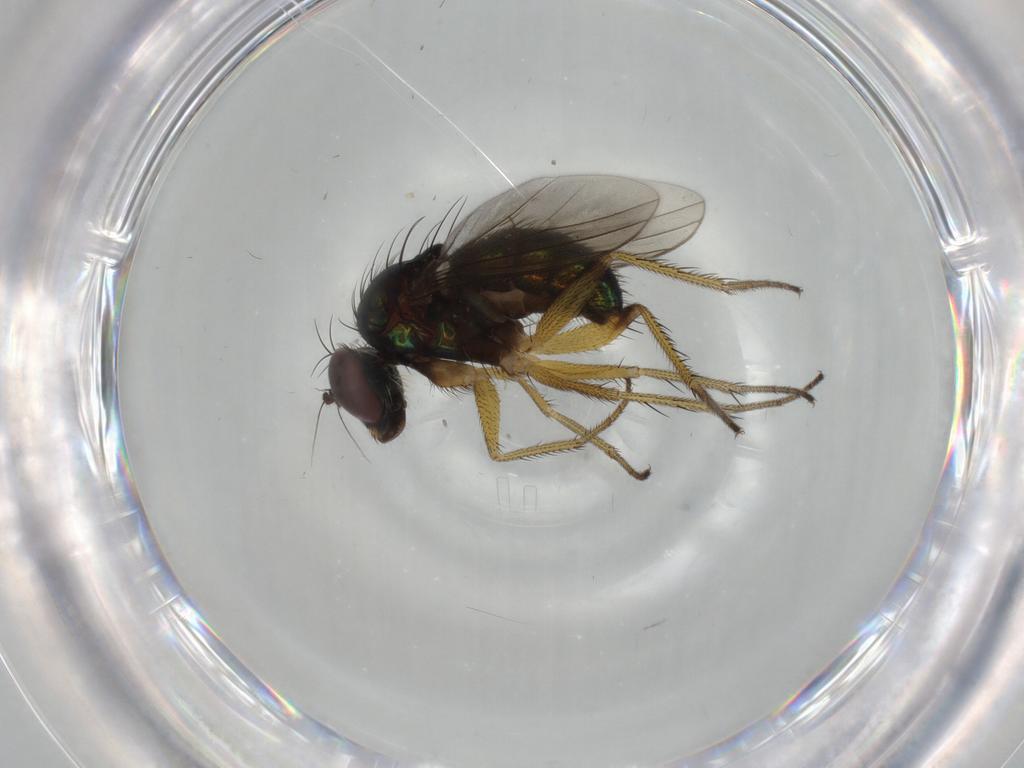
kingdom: Animalia
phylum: Arthropoda
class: Insecta
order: Diptera
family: Dolichopodidae
